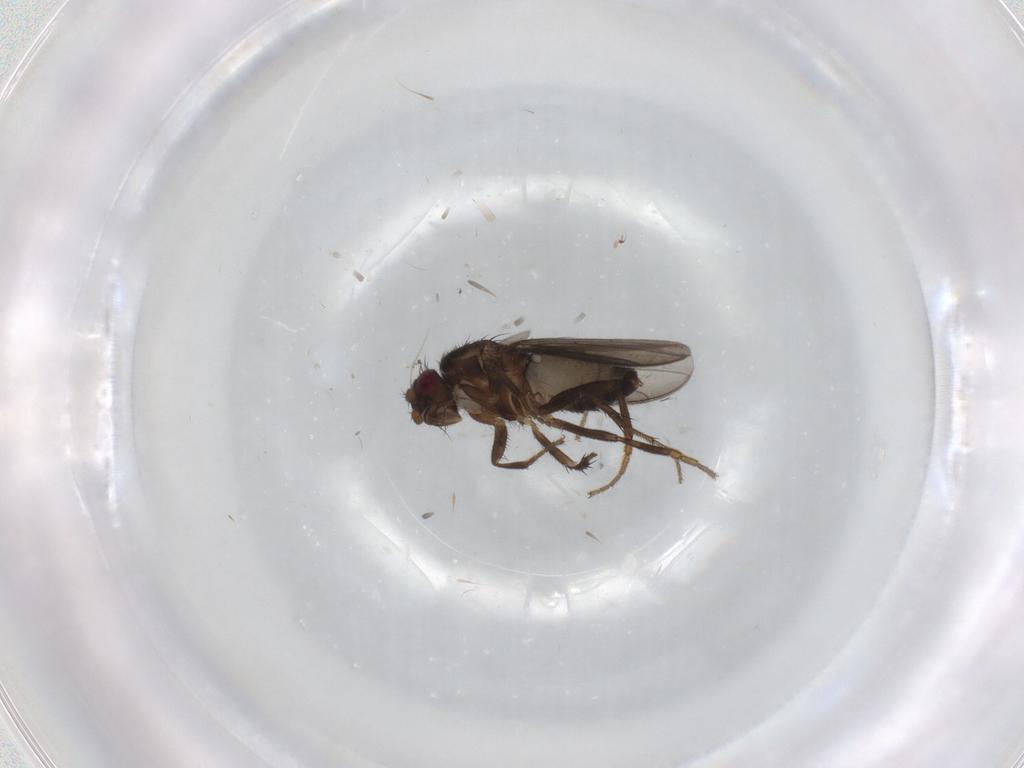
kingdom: Animalia
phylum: Arthropoda
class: Insecta
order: Diptera
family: Sphaeroceridae
